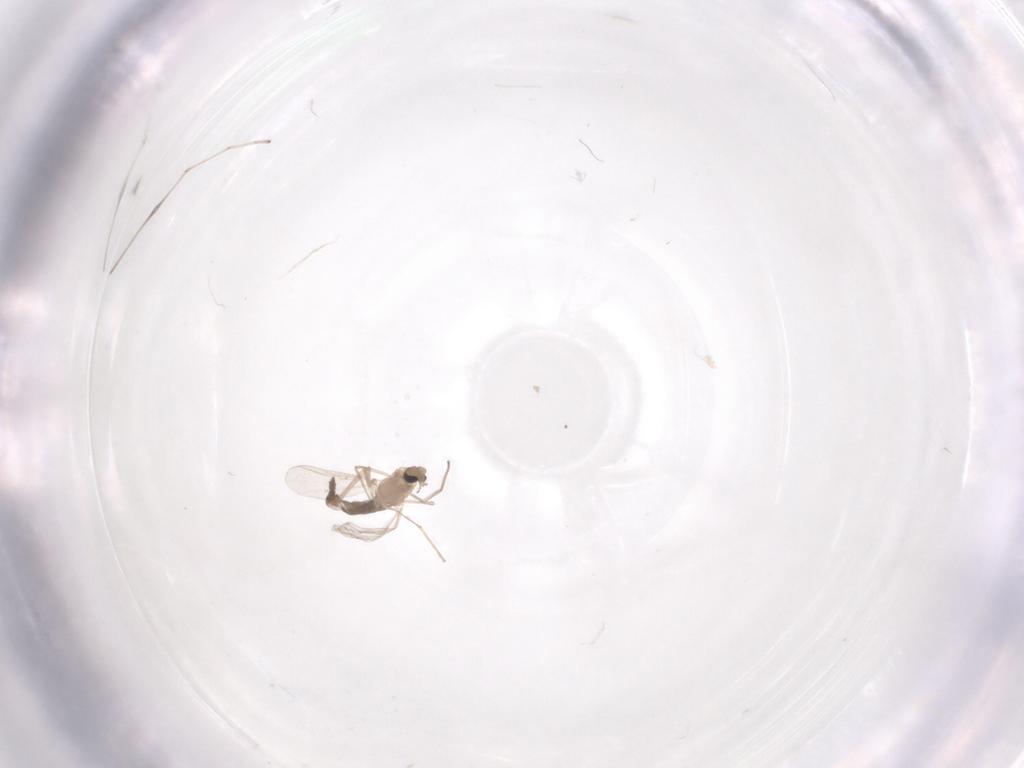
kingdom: Animalia
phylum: Arthropoda
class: Insecta
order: Diptera
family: Chironomidae
